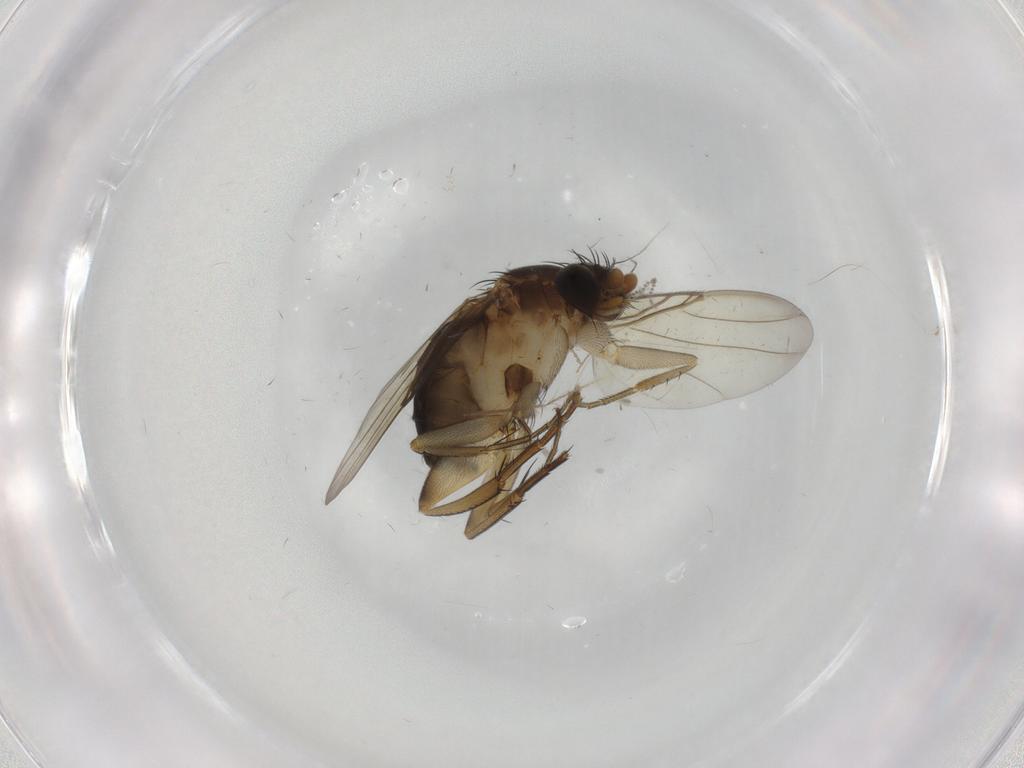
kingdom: Animalia
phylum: Arthropoda
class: Insecta
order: Diptera
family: Phoridae
